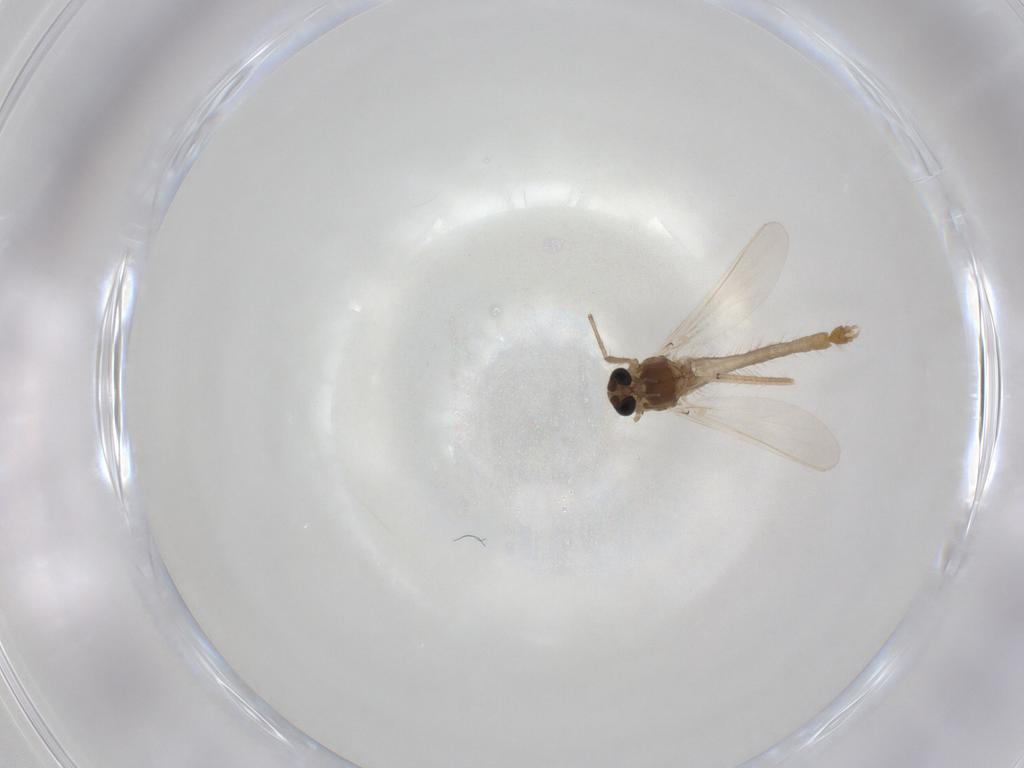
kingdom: Animalia
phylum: Arthropoda
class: Insecta
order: Diptera
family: Chironomidae
